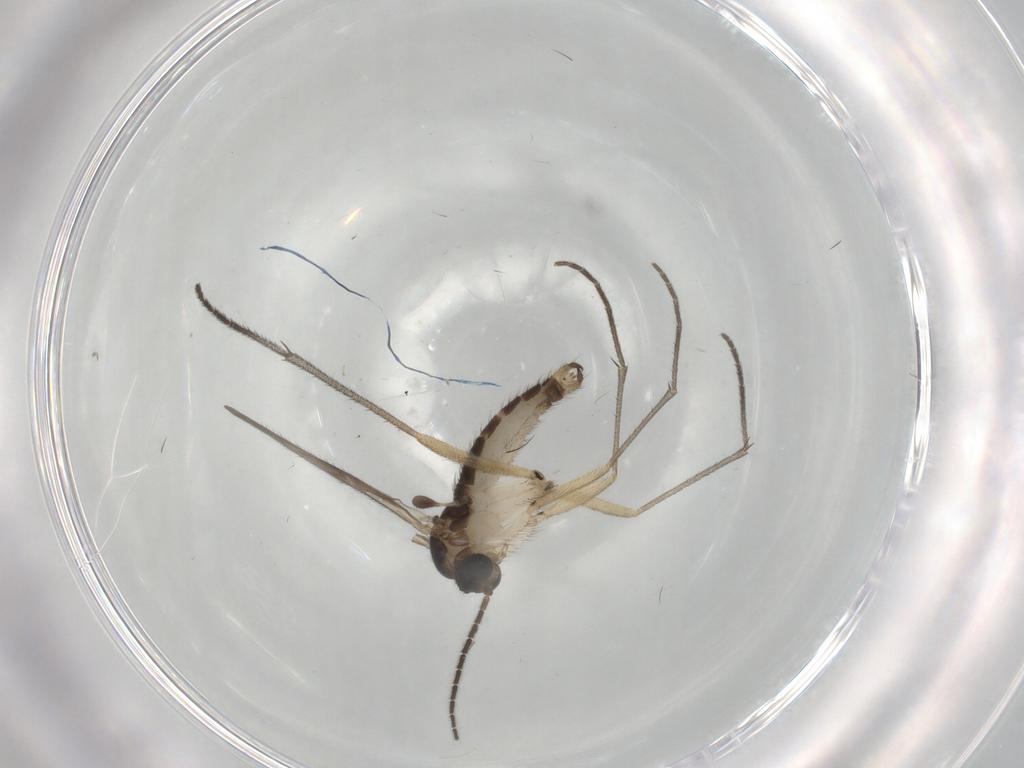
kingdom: Animalia
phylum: Arthropoda
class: Insecta
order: Diptera
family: Sciaridae
